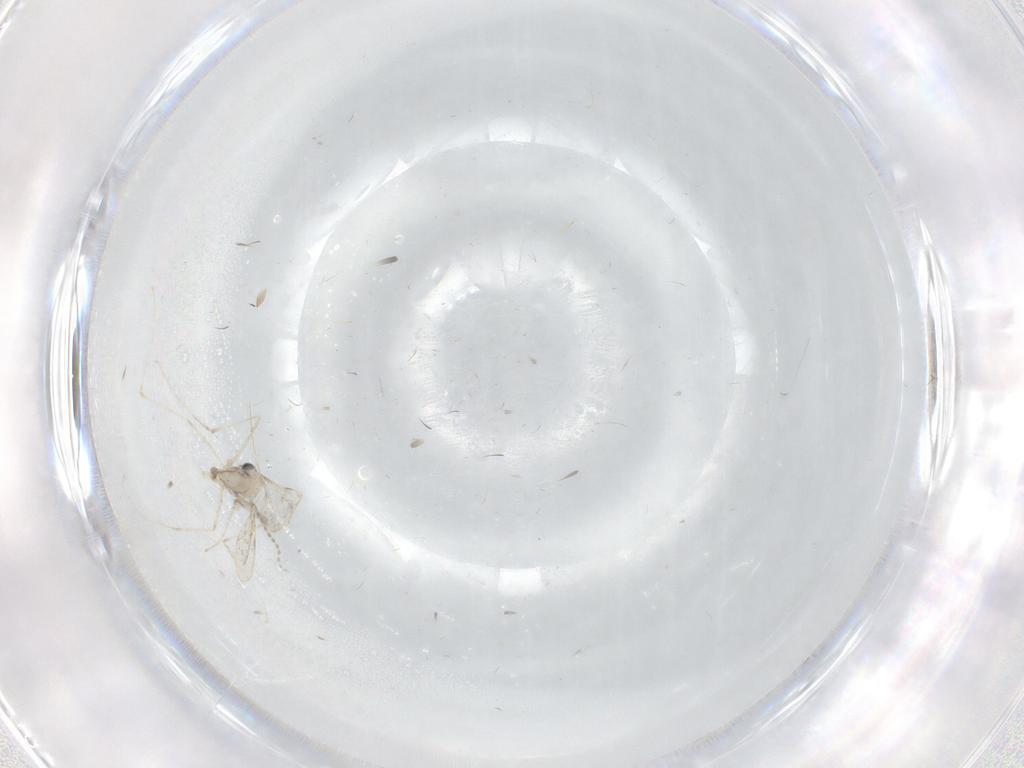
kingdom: Animalia
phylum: Arthropoda
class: Insecta
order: Diptera
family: Cecidomyiidae
